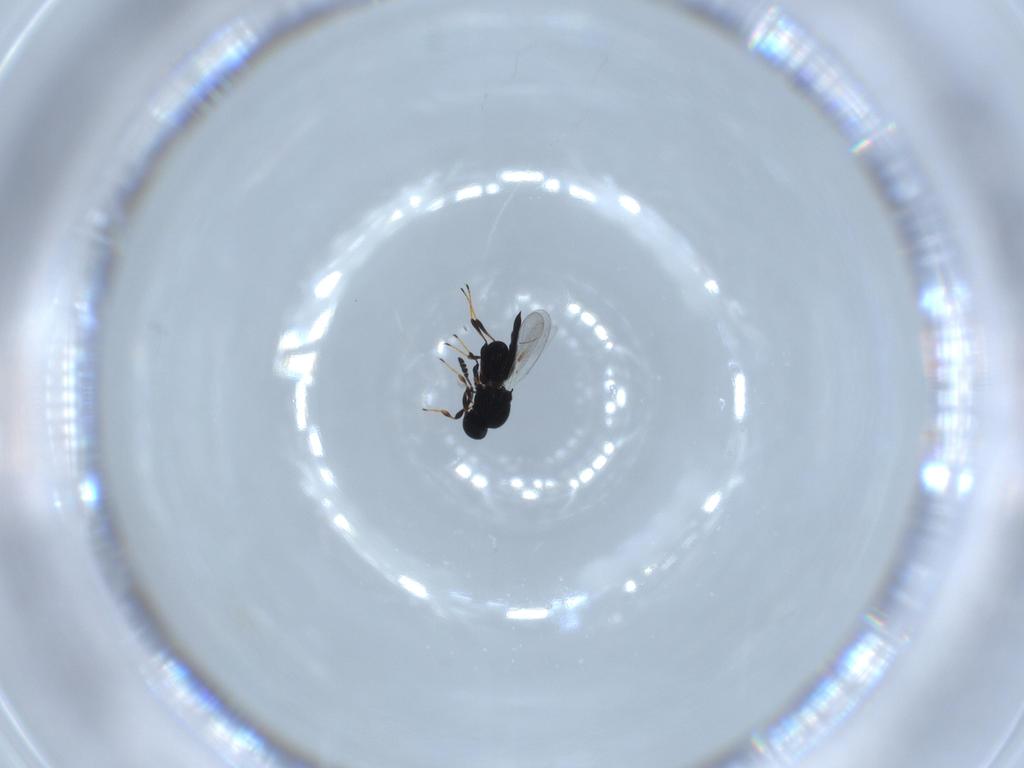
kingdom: Animalia
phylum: Arthropoda
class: Insecta
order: Hymenoptera
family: Platygastridae
